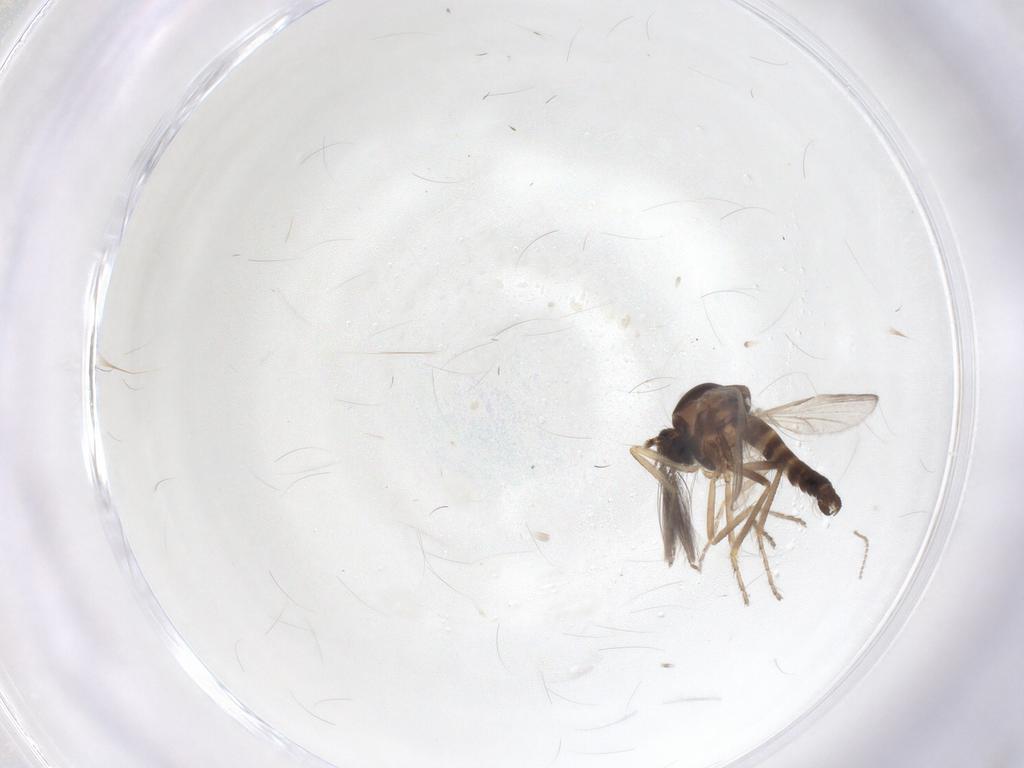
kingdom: Animalia
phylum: Arthropoda
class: Insecta
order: Diptera
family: Ceratopogonidae
